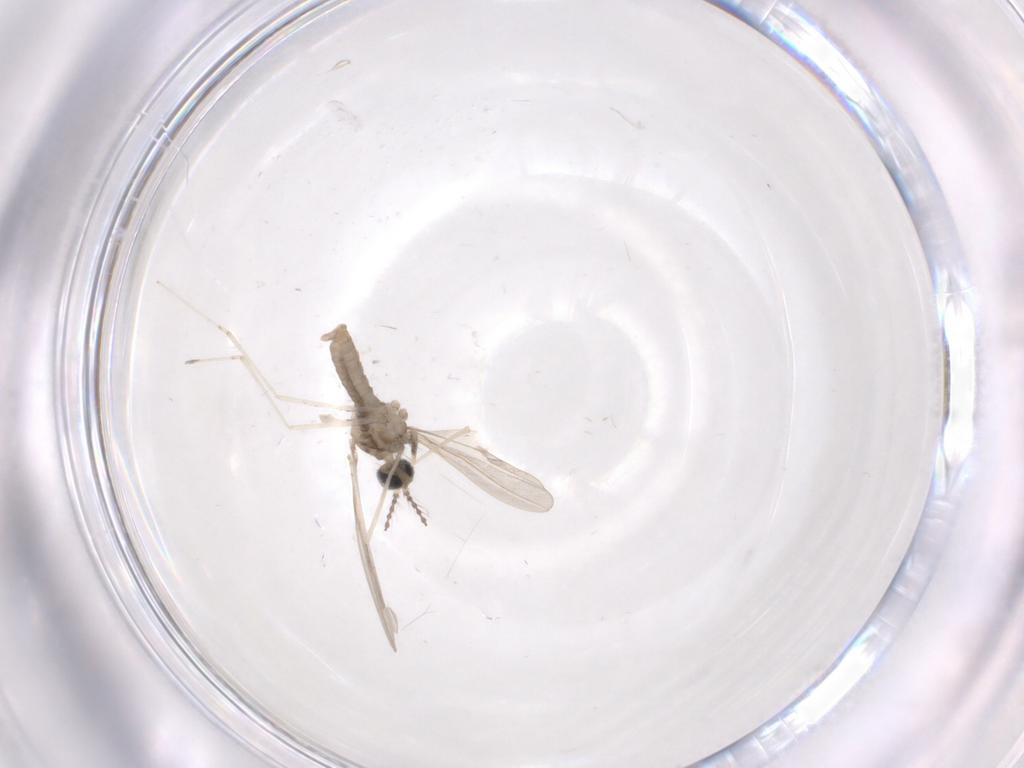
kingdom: Animalia
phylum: Arthropoda
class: Insecta
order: Diptera
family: Cecidomyiidae
